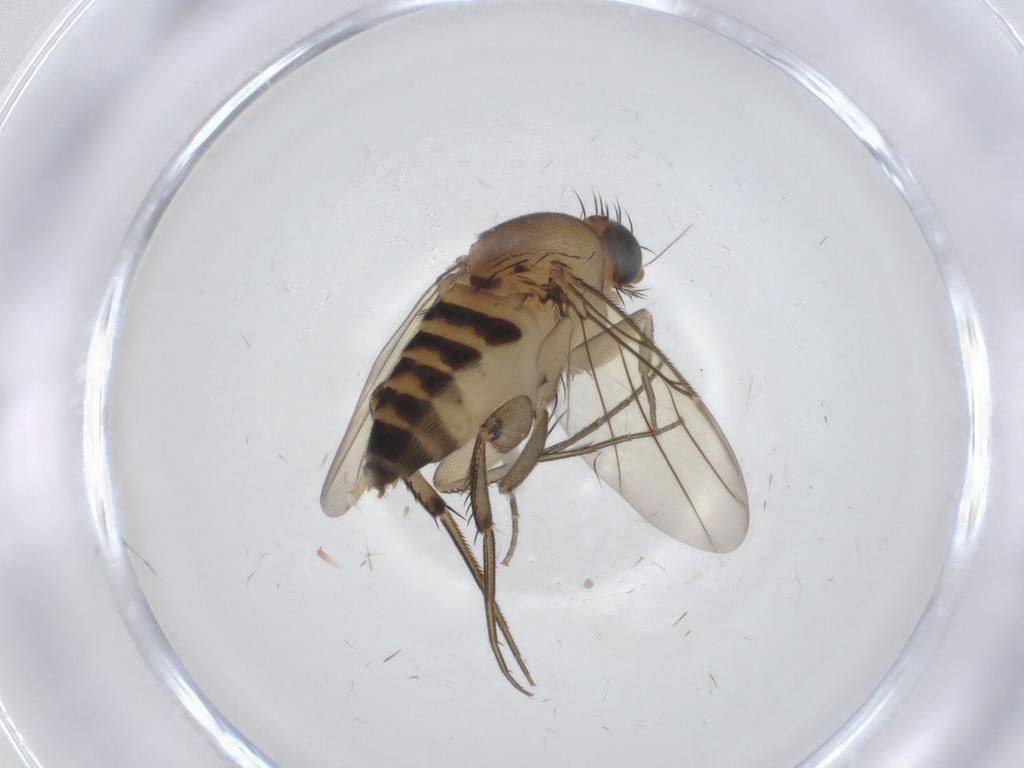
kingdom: Animalia
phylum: Arthropoda
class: Insecta
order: Diptera
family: Phoridae
